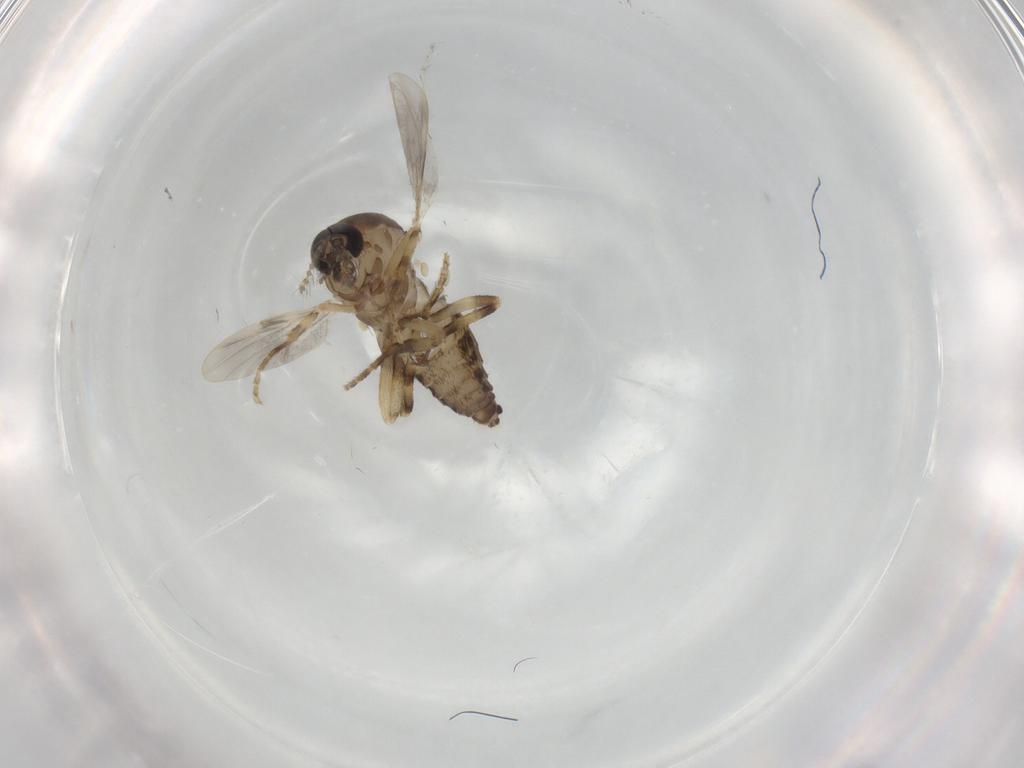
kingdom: Animalia
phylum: Arthropoda
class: Insecta
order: Diptera
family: Ceratopogonidae
